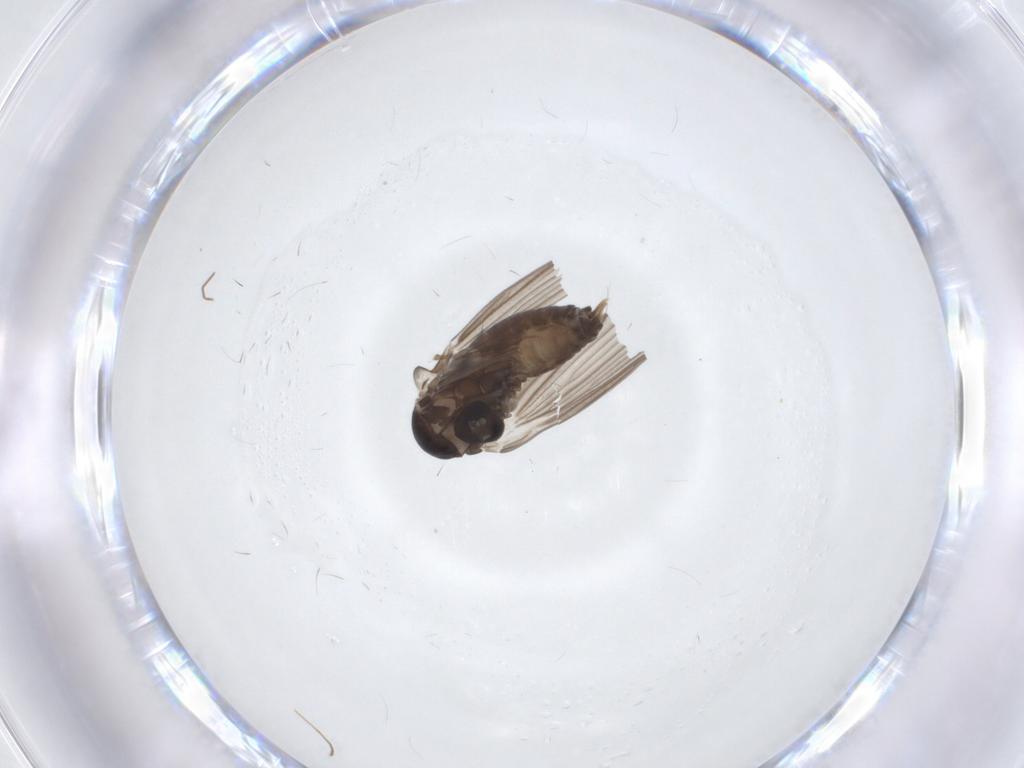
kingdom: Animalia
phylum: Arthropoda
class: Insecta
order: Diptera
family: Psychodidae
